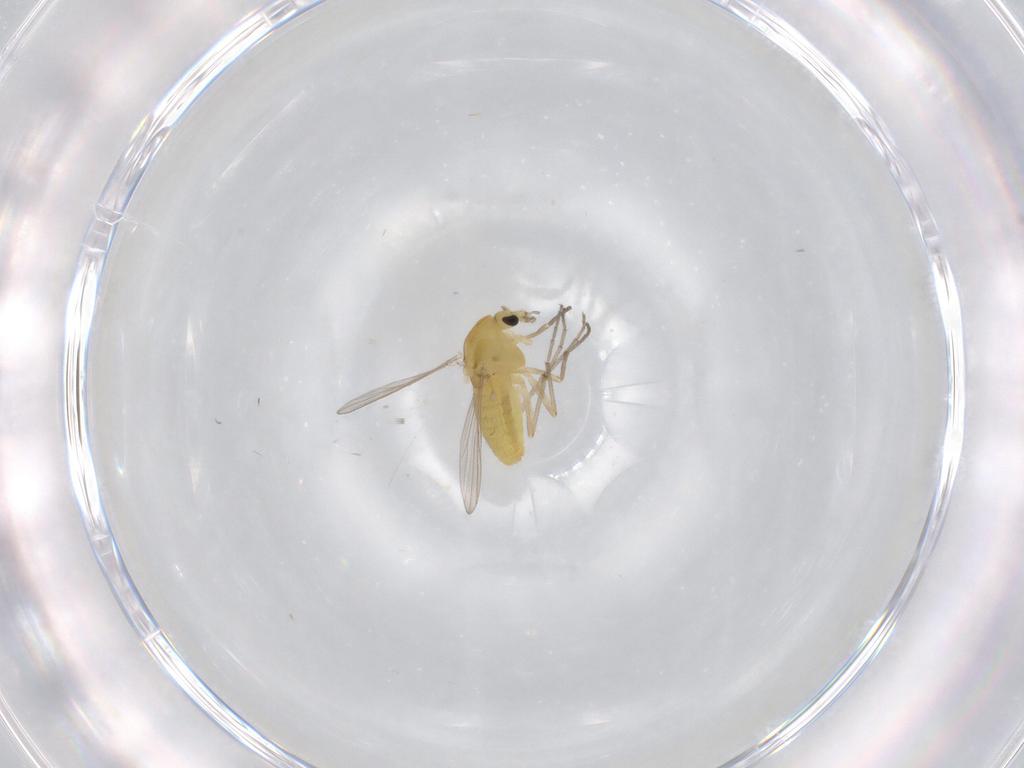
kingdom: Animalia
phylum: Arthropoda
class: Insecta
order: Diptera
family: Chironomidae
